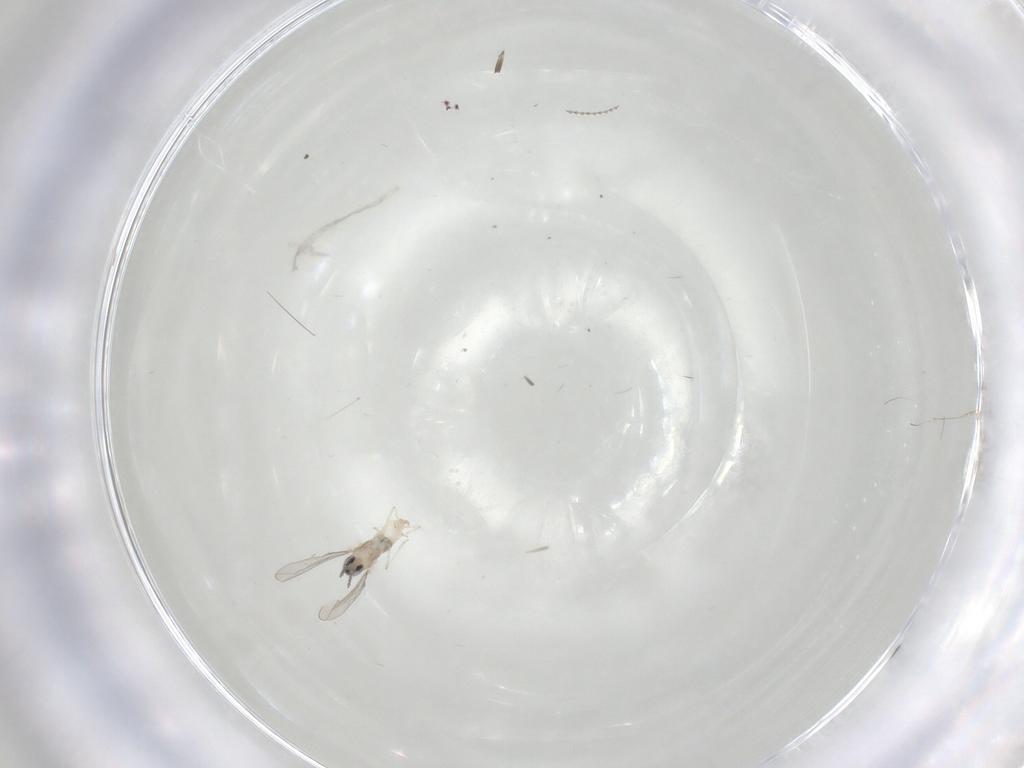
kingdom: Animalia
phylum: Arthropoda
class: Insecta
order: Diptera
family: Cecidomyiidae
